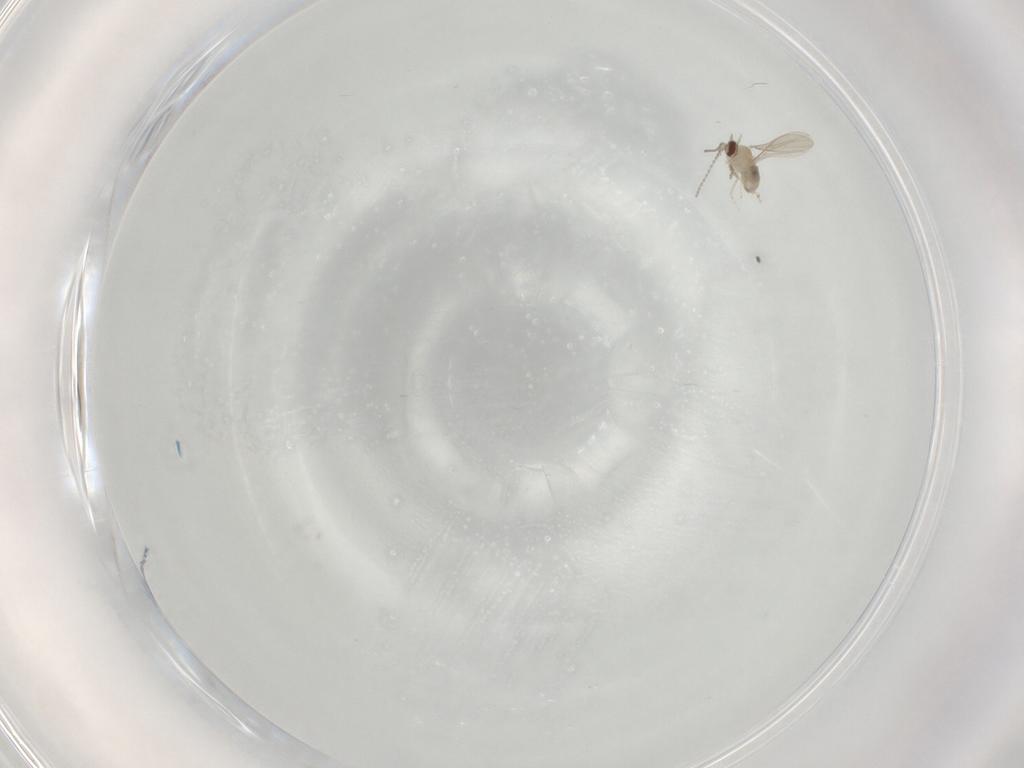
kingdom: Animalia
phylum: Arthropoda
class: Insecta
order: Diptera
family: Cecidomyiidae
